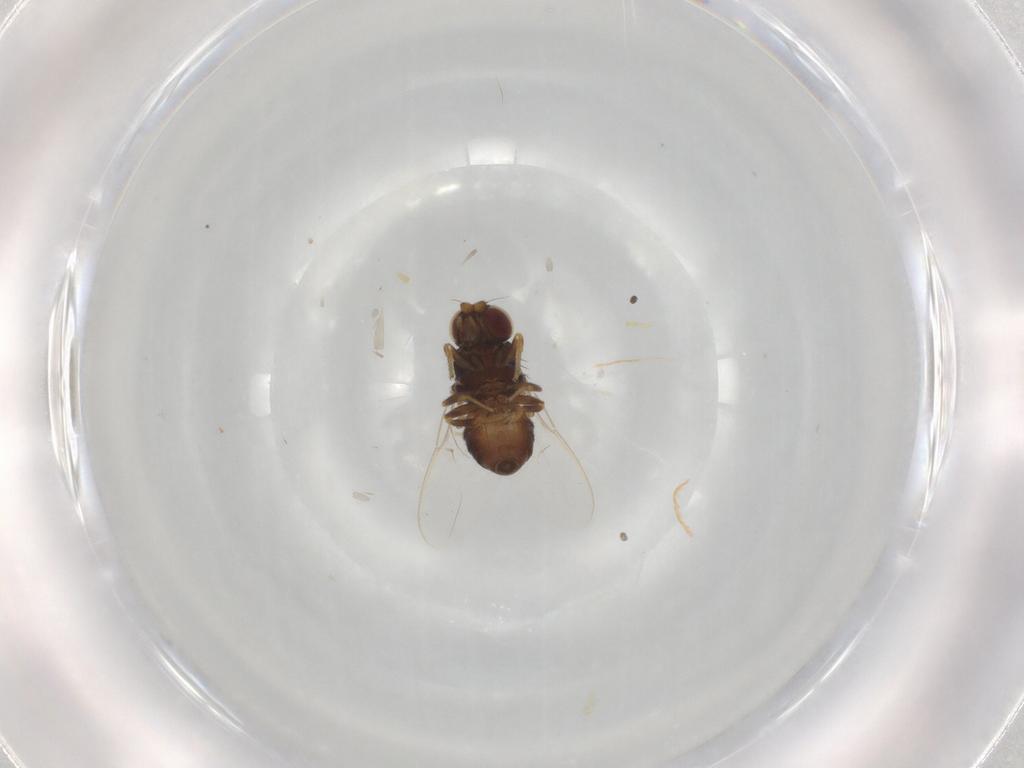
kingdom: Animalia
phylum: Arthropoda
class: Insecta
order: Diptera
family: Chloropidae
